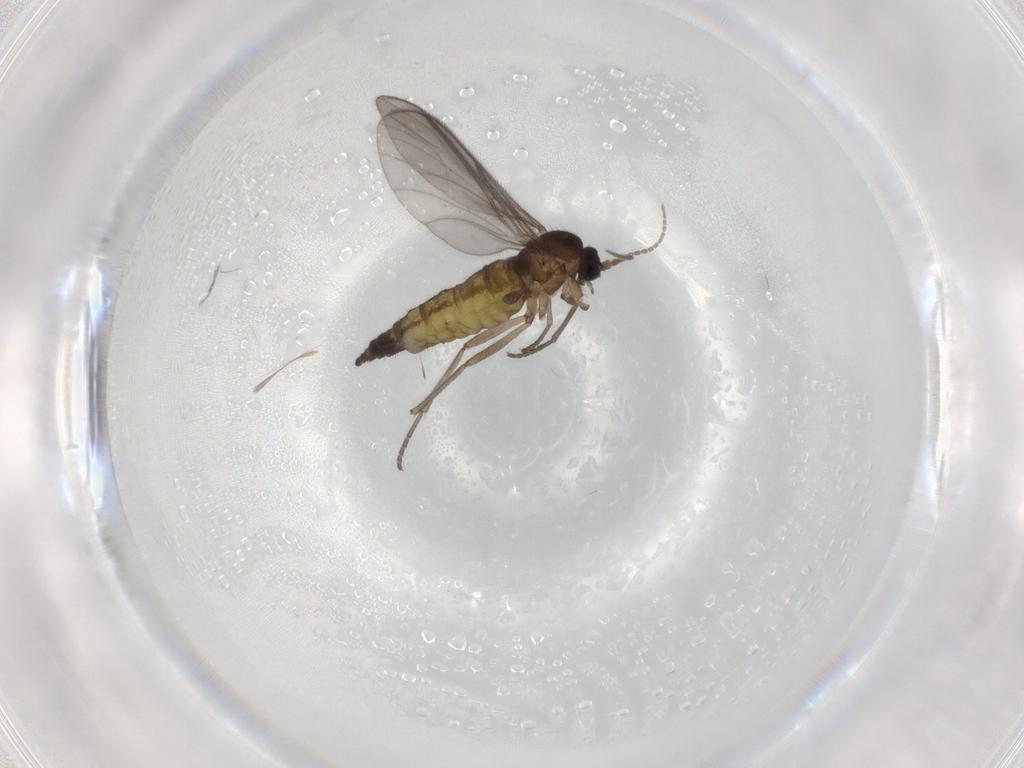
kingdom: Animalia
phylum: Arthropoda
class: Insecta
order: Diptera
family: Sciaridae
